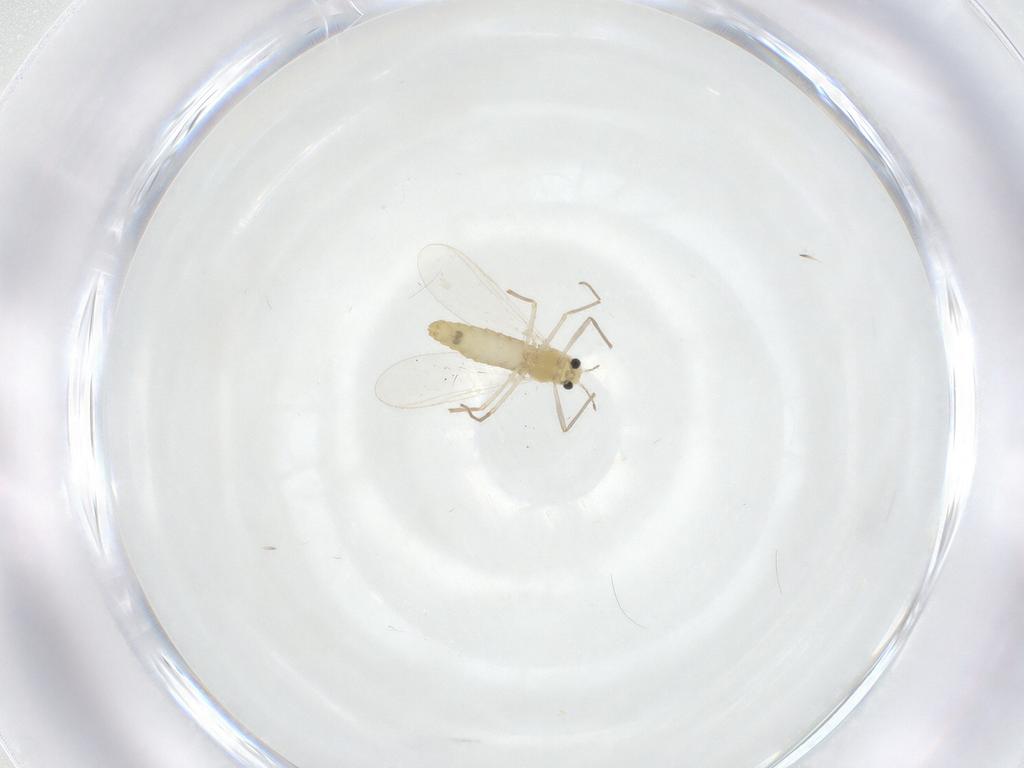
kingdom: Animalia
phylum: Arthropoda
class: Insecta
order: Diptera
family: Chironomidae
